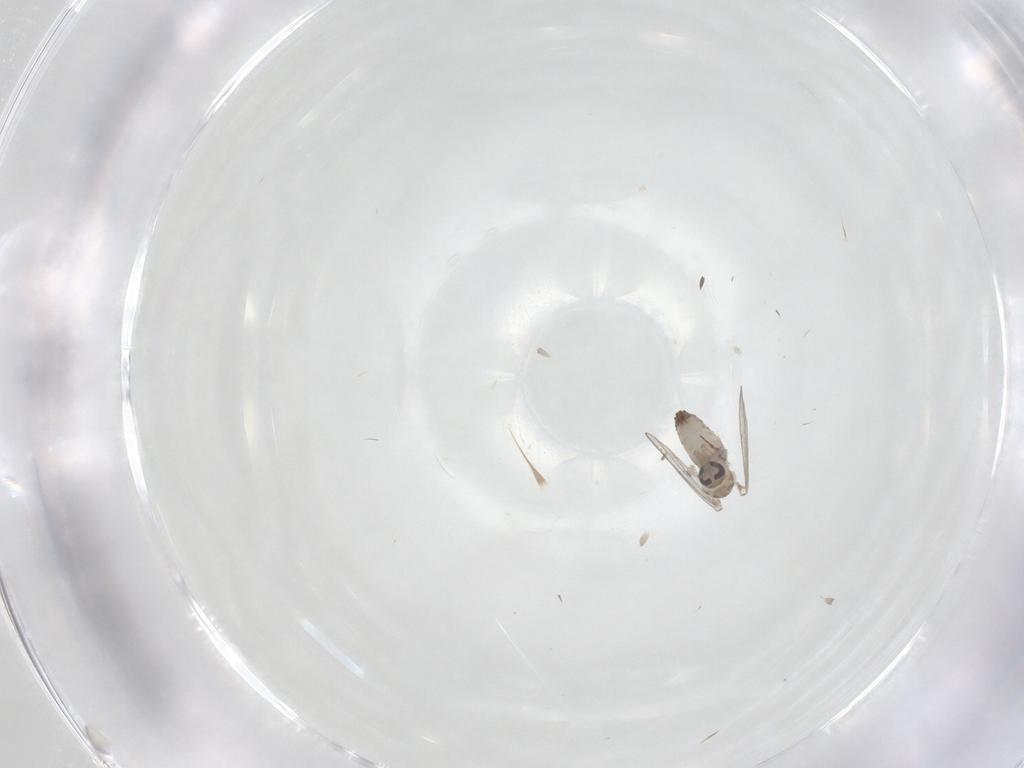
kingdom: Animalia
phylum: Arthropoda
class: Insecta
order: Diptera
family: Psychodidae
